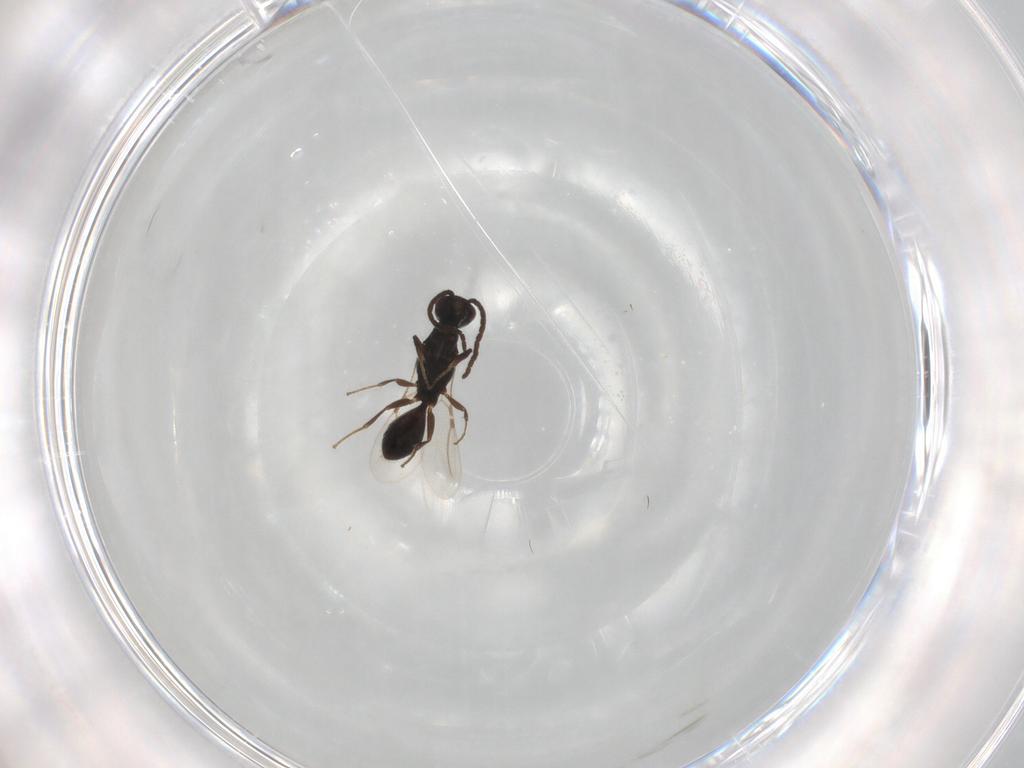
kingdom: Animalia
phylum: Arthropoda
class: Insecta
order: Hymenoptera
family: Bethylidae
